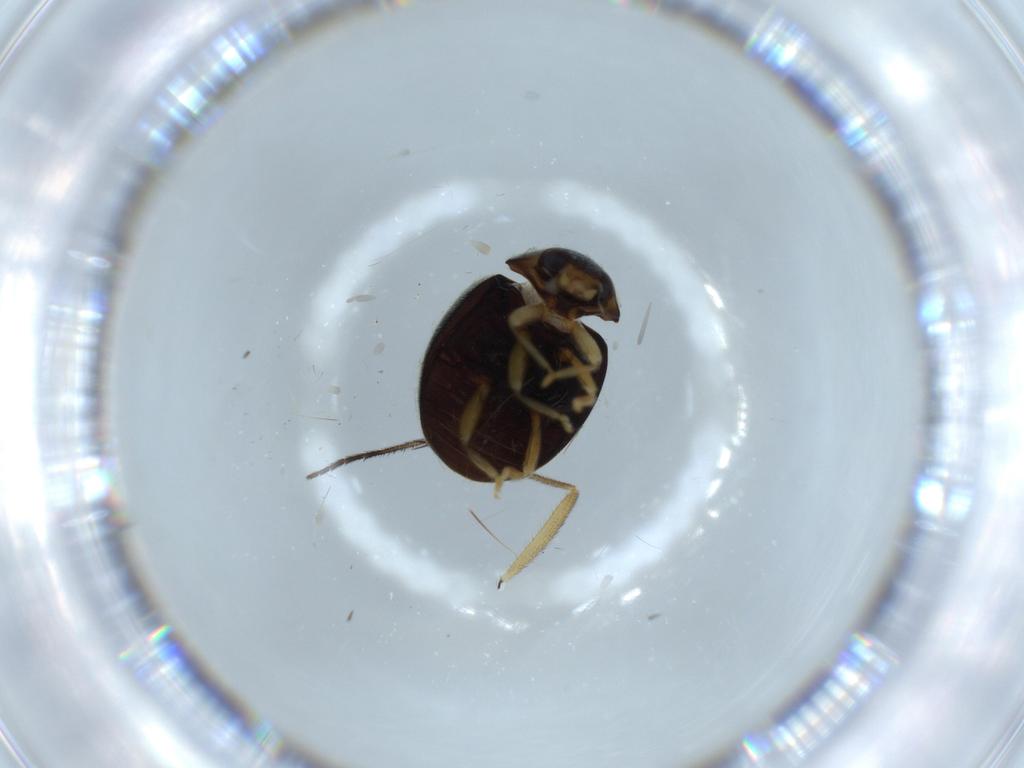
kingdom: Animalia
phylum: Arthropoda
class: Insecta
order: Coleoptera
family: Coccinellidae
